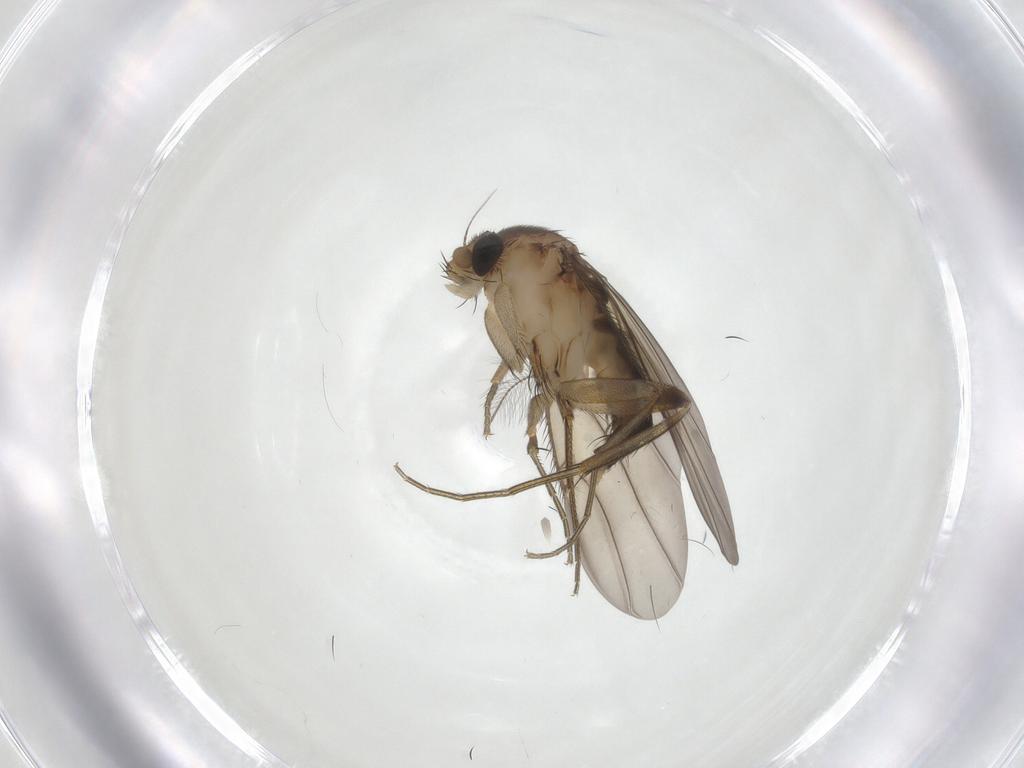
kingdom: Animalia
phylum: Arthropoda
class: Insecta
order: Diptera
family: Phoridae
